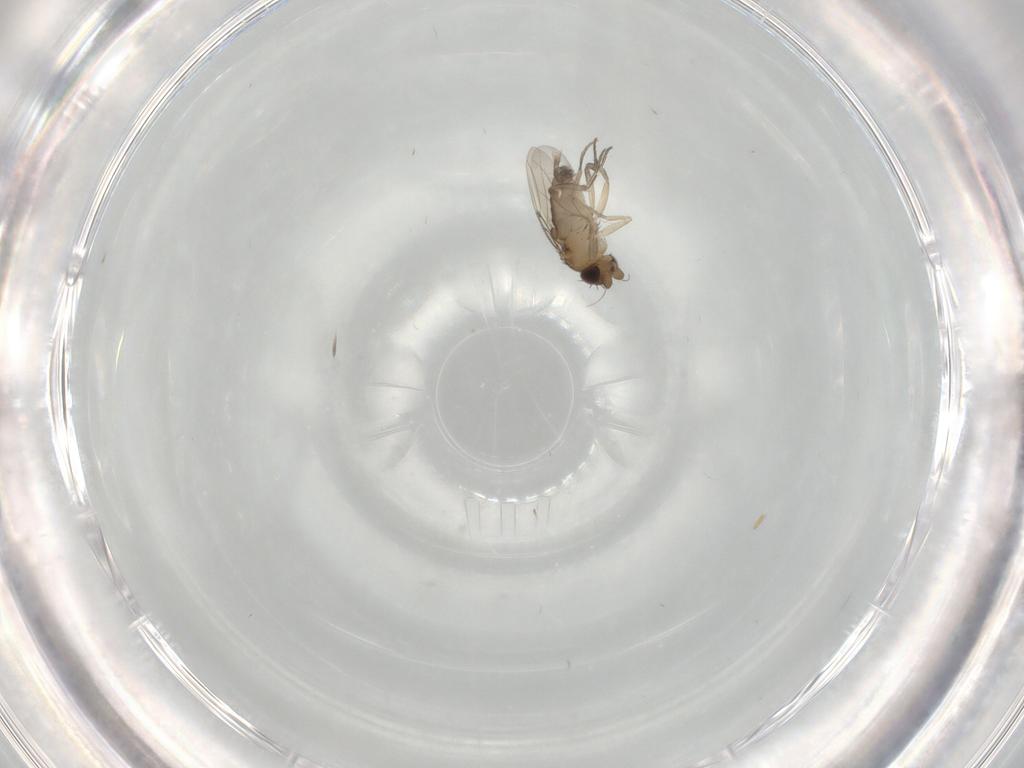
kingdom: Animalia
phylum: Arthropoda
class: Insecta
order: Diptera
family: Phoridae
